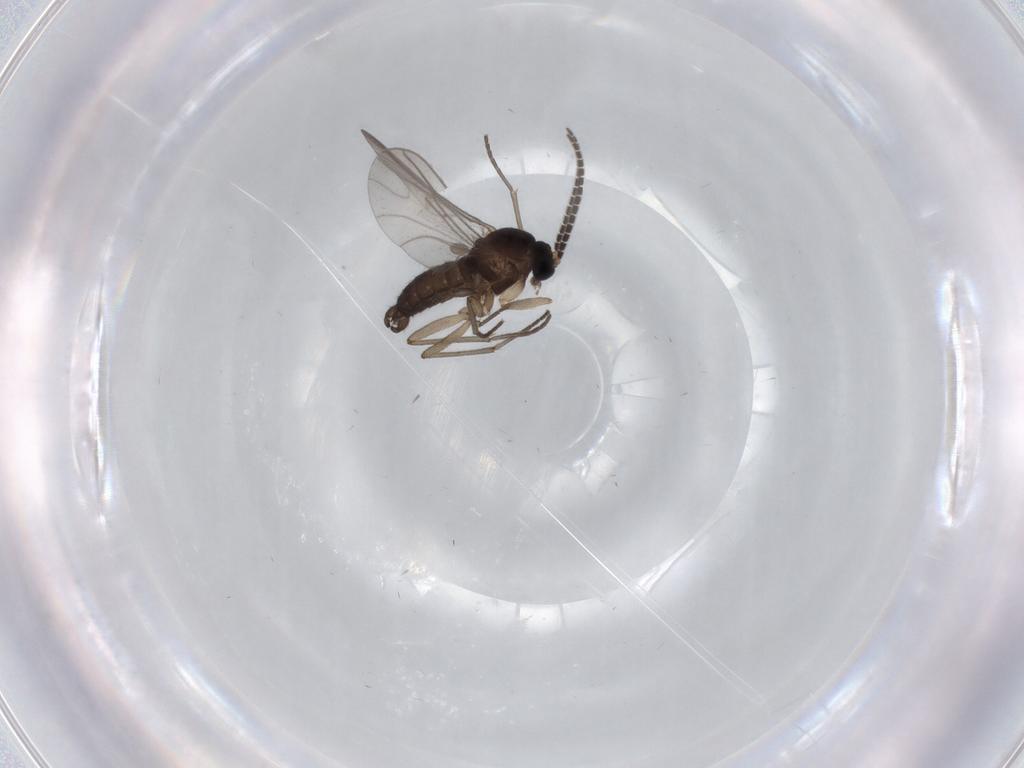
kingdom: Animalia
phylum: Arthropoda
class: Insecta
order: Diptera
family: Sciaridae
